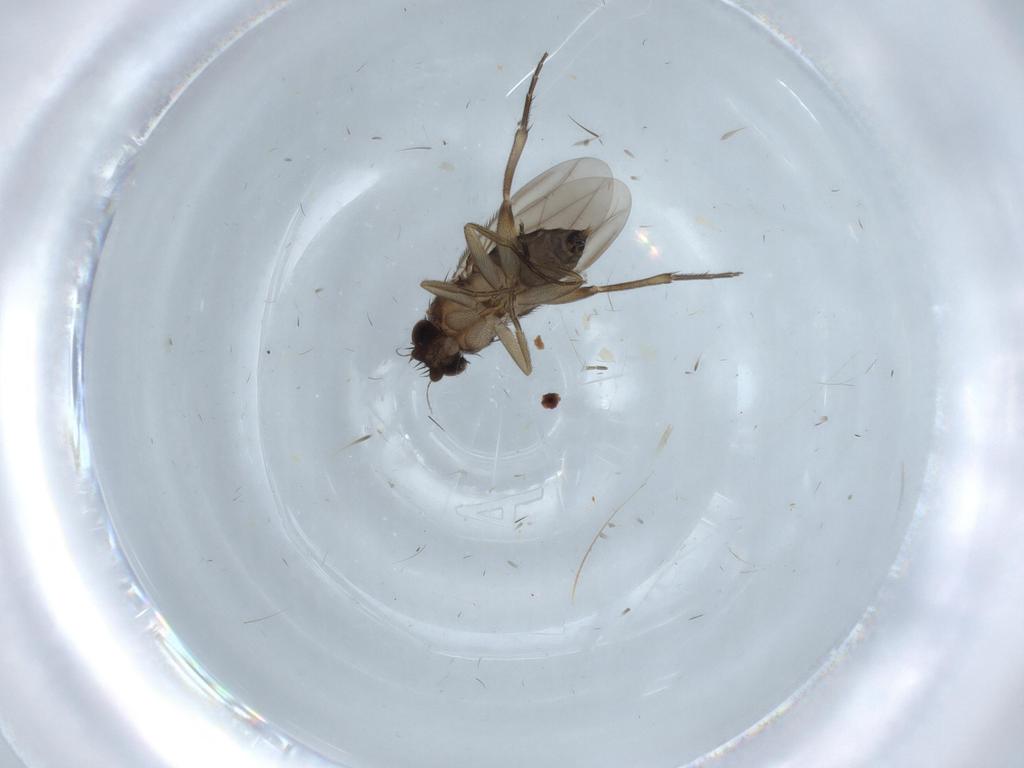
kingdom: Animalia
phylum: Arthropoda
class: Insecta
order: Diptera
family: Phoridae
